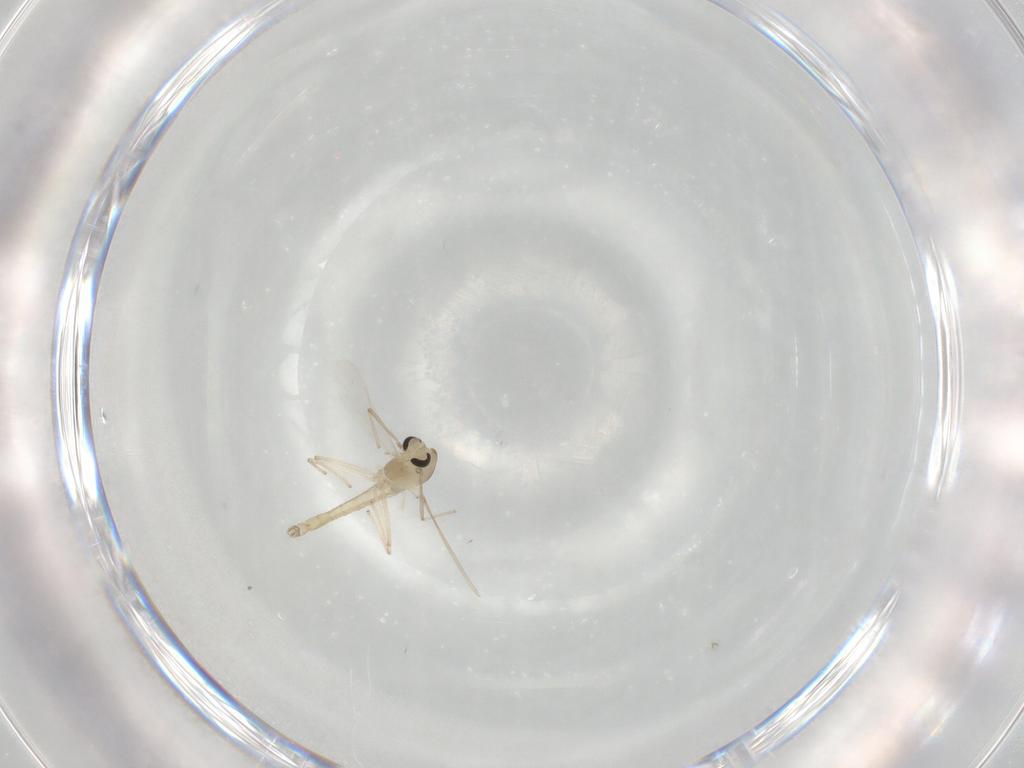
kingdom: Animalia
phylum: Arthropoda
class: Insecta
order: Diptera
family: Chironomidae
